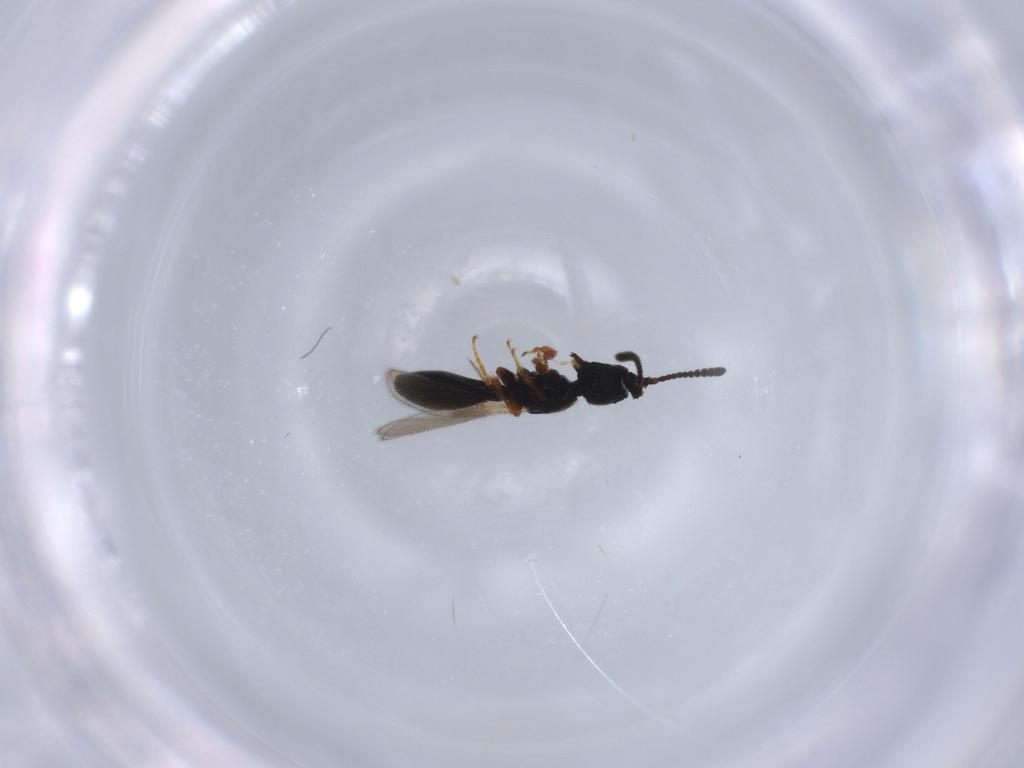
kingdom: Animalia
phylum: Arthropoda
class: Insecta
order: Hymenoptera
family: Diapriidae
